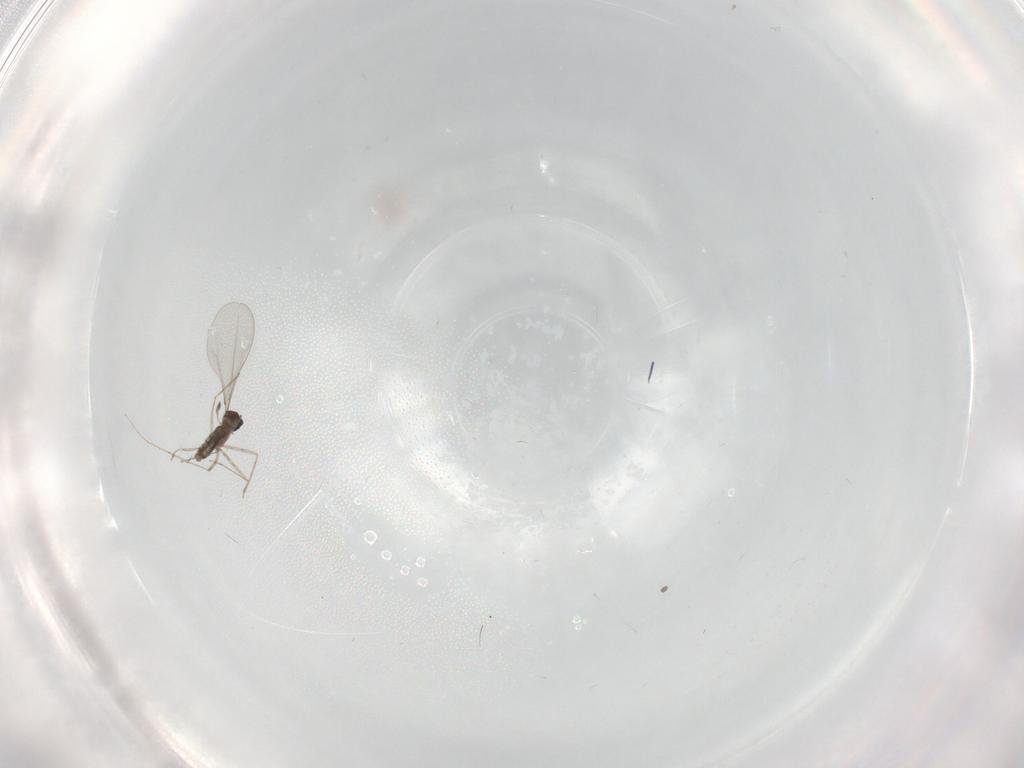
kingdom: Animalia
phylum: Arthropoda
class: Insecta
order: Diptera
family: Cecidomyiidae
